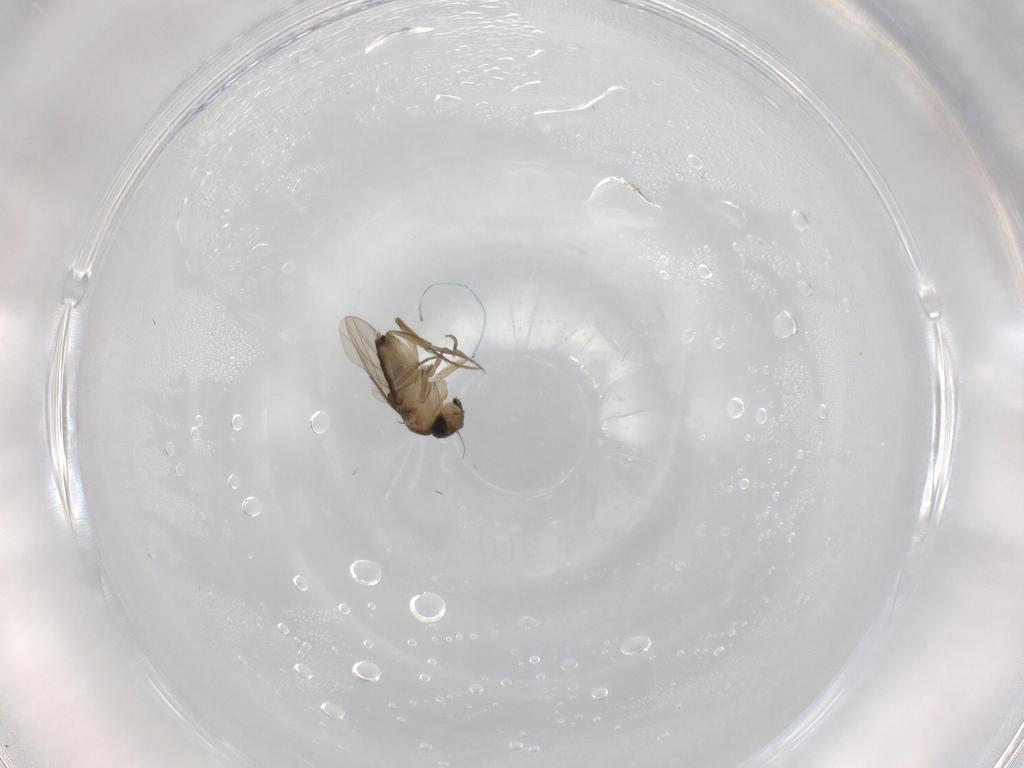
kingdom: Animalia
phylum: Arthropoda
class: Insecta
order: Diptera
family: Phoridae
